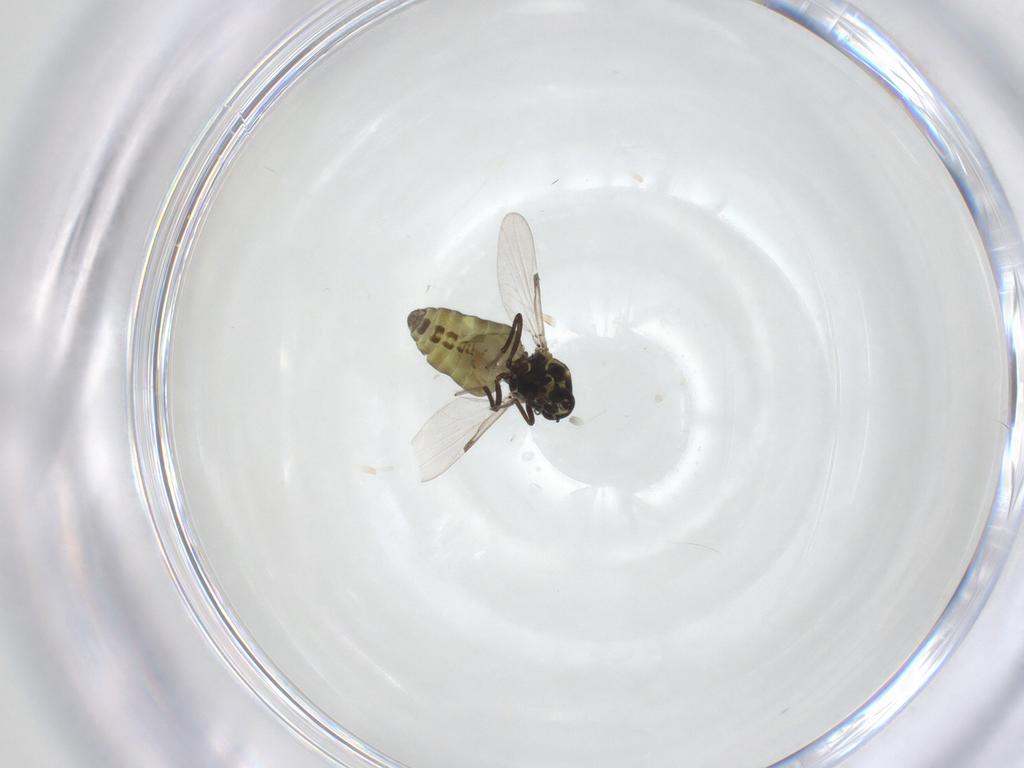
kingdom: Animalia
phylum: Arthropoda
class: Insecta
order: Diptera
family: Ceratopogonidae
